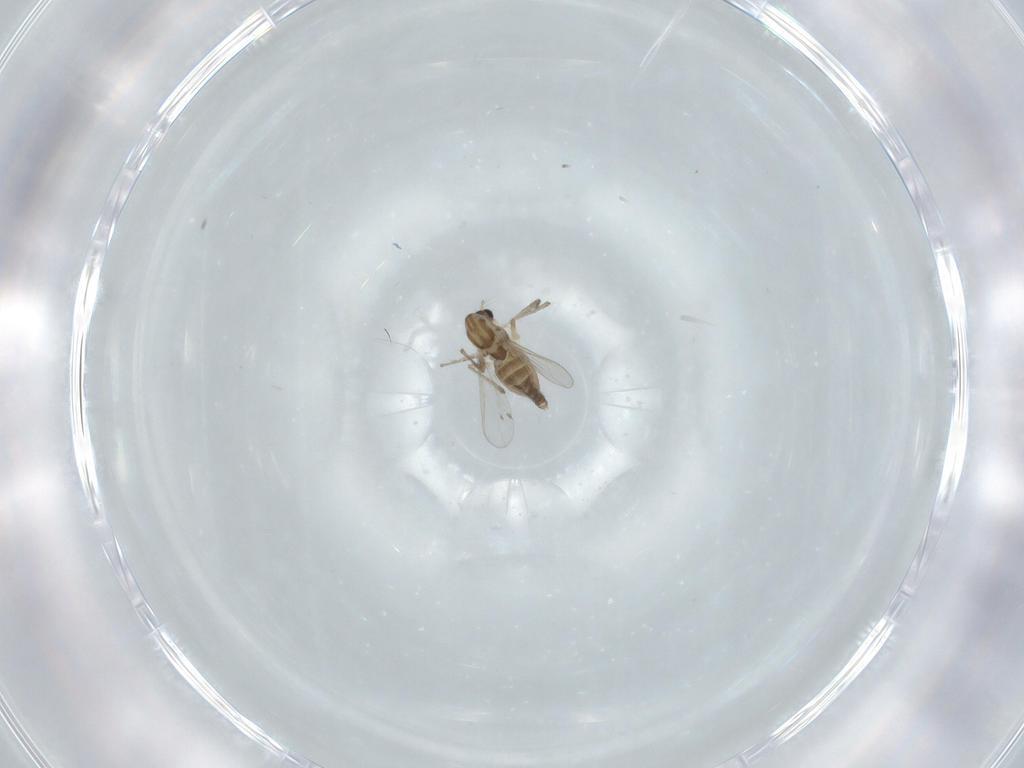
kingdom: Animalia
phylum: Arthropoda
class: Insecta
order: Diptera
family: Chironomidae
